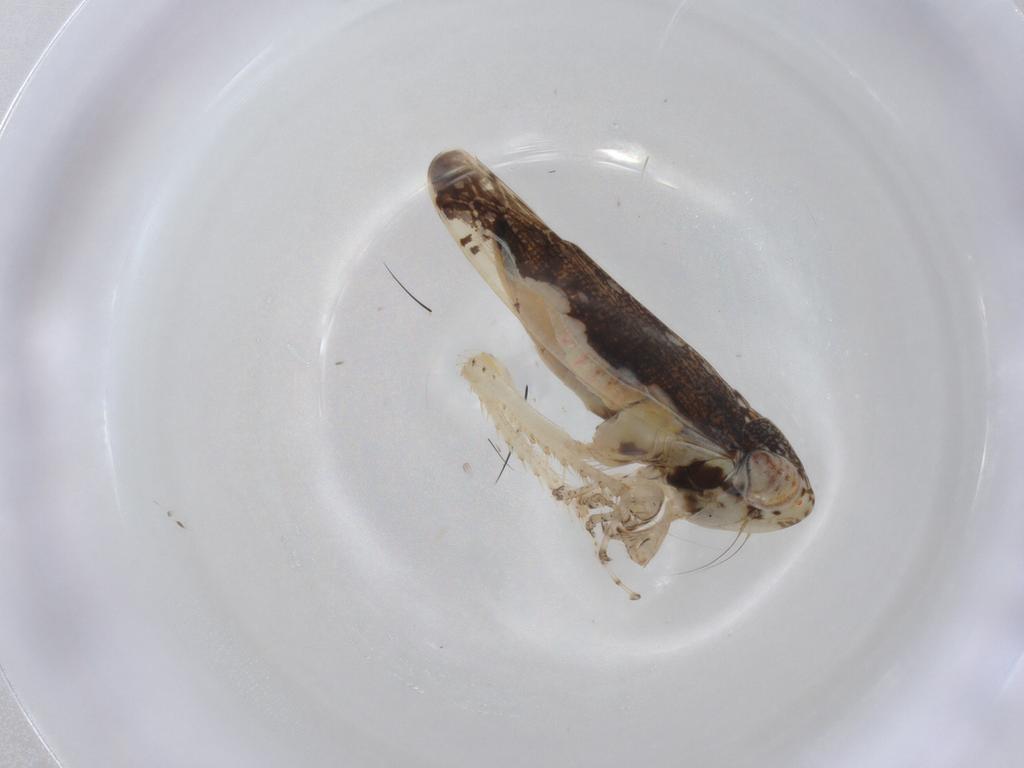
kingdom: Animalia
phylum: Arthropoda
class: Insecta
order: Hemiptera
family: Cicadellidae
